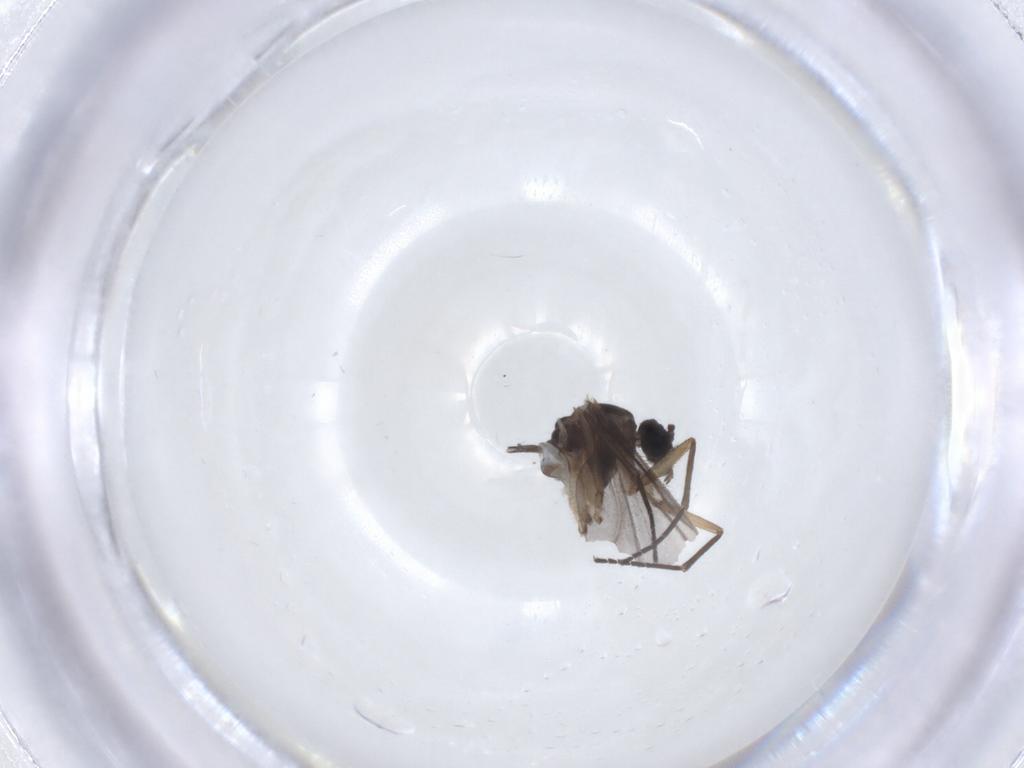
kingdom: Animalia
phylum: Arthropoda
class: Insecta
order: Diptera
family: Sciaridae
